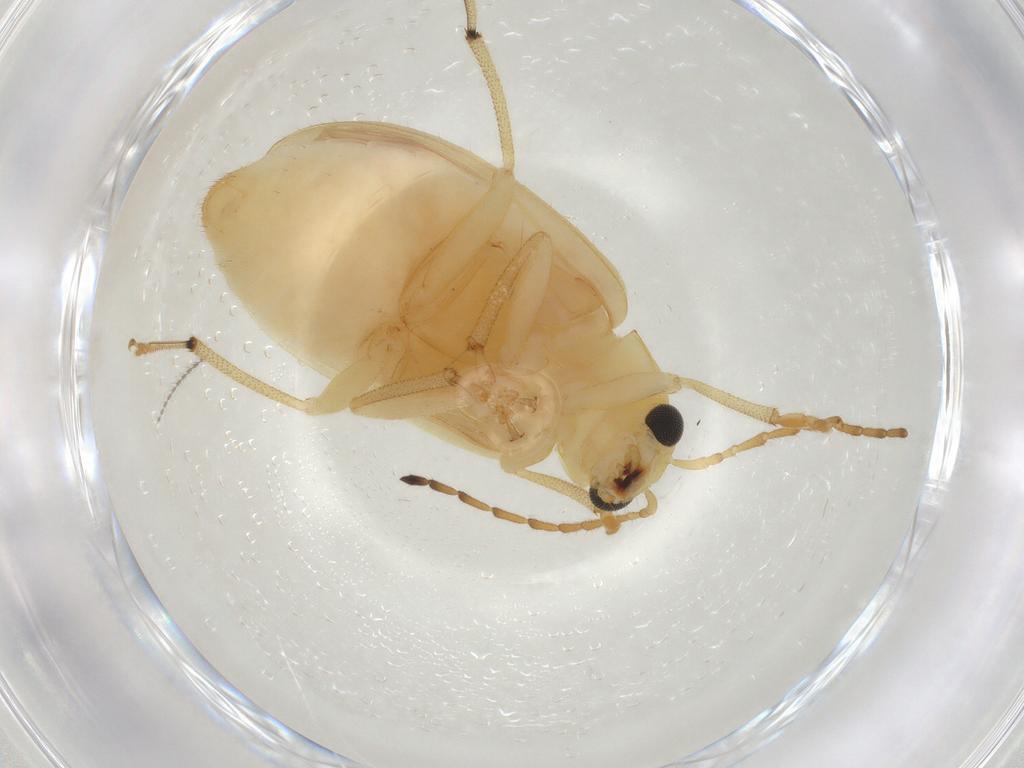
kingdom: Animalia
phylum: Arthropoda
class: Insecta
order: Coleoptera
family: Chrysomelidae
